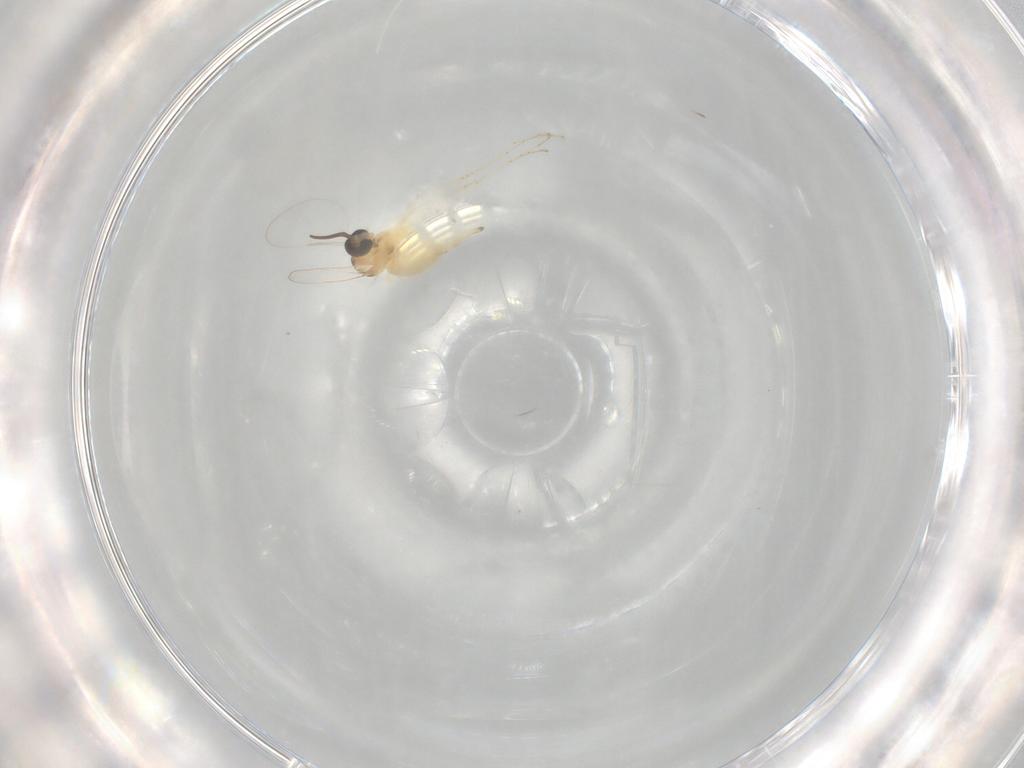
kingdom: Animalia
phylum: Arthropoda
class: Insecta
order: Diptera
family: Cecidomyiidae
